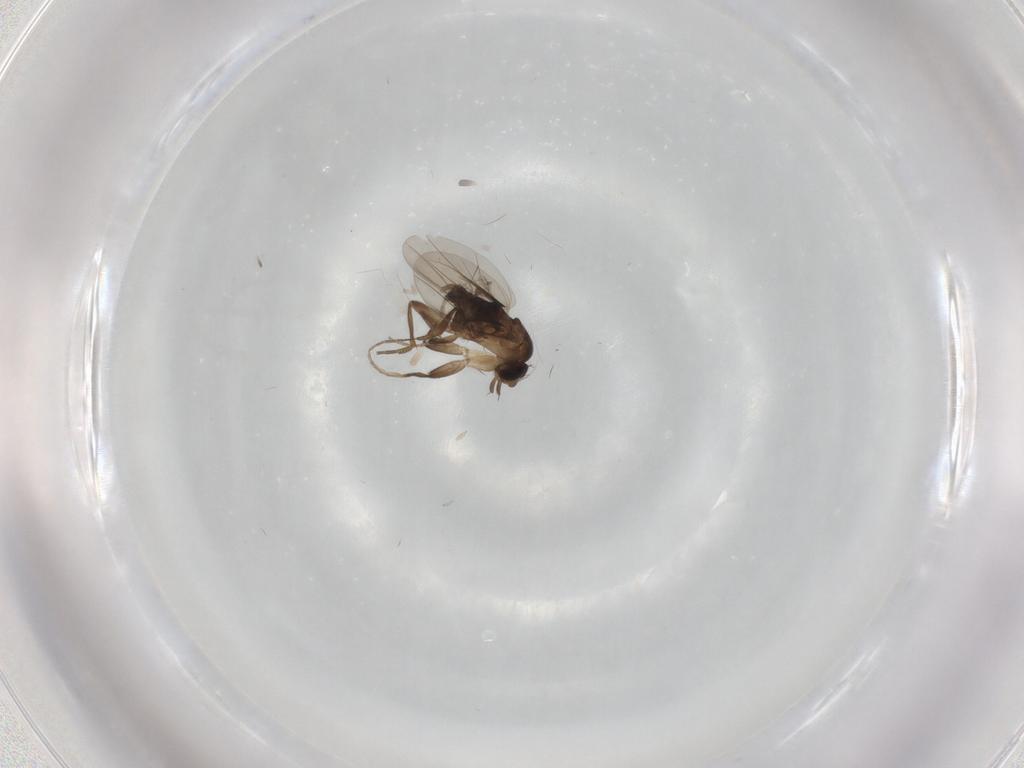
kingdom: Animalia
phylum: Arthropoda
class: Insecta
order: Diptera
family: Phoridae
